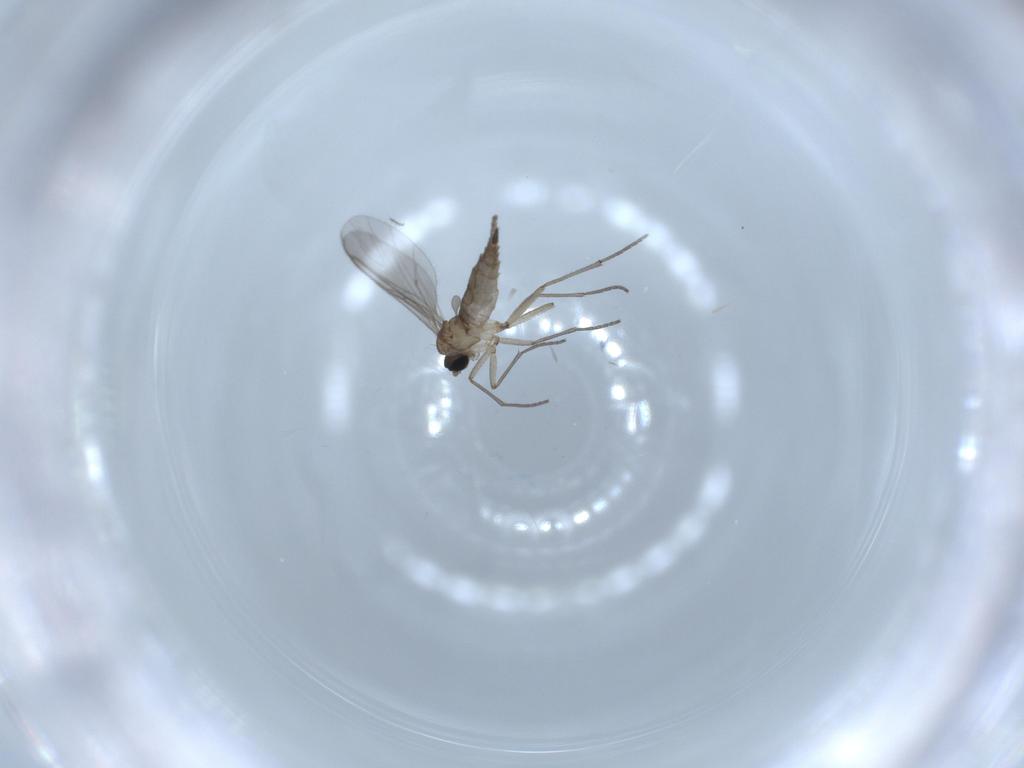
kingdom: Animalia
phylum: Arthropoda
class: Insecta
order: Diptera
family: Sciaridae
